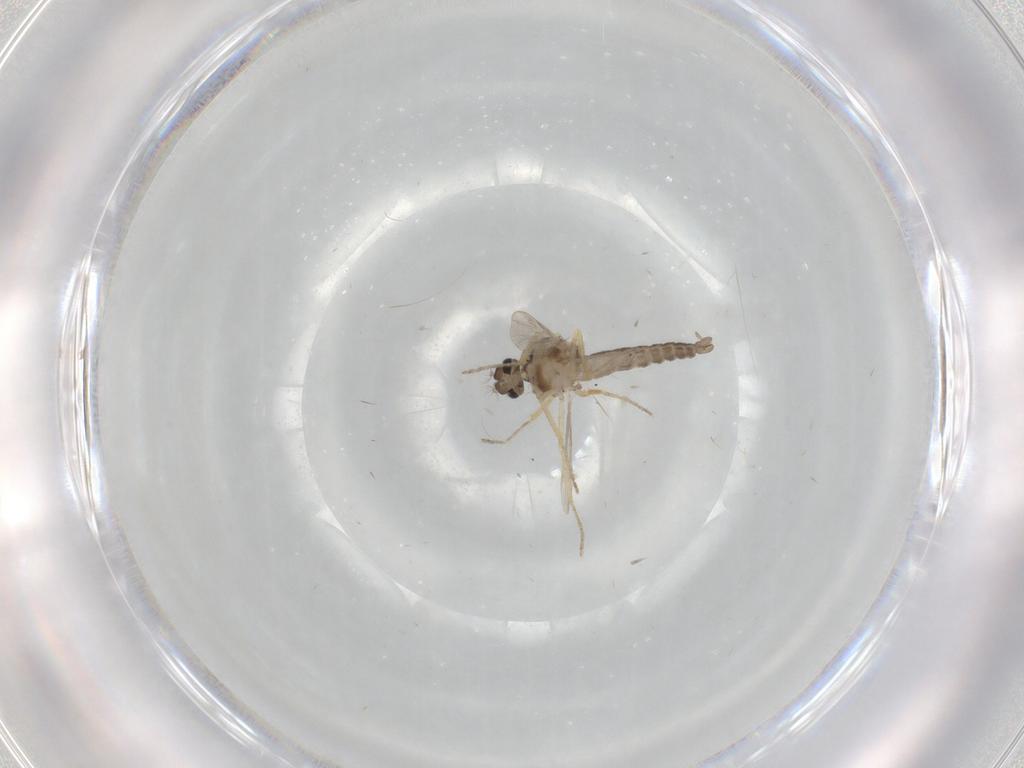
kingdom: Animalia
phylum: Arthropoda
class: Insecta
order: Diptera
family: Ceratopogonidae
